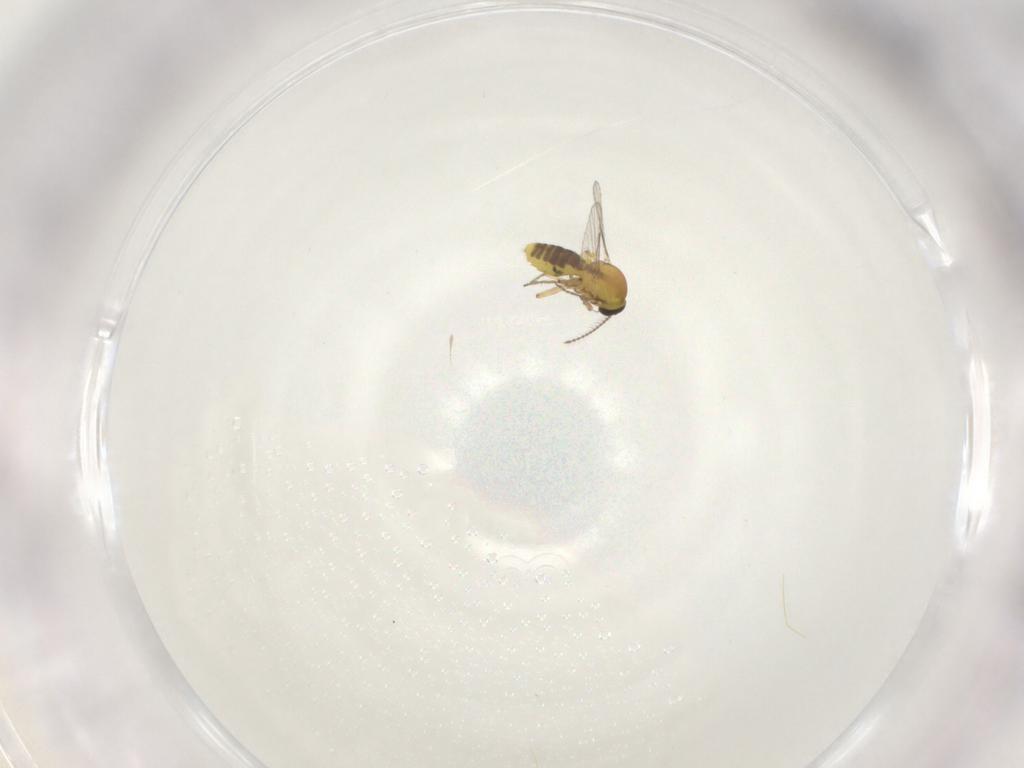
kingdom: Animalia
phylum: Arthropoda
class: Insecta
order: Diptera
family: Ceratopogonidae
